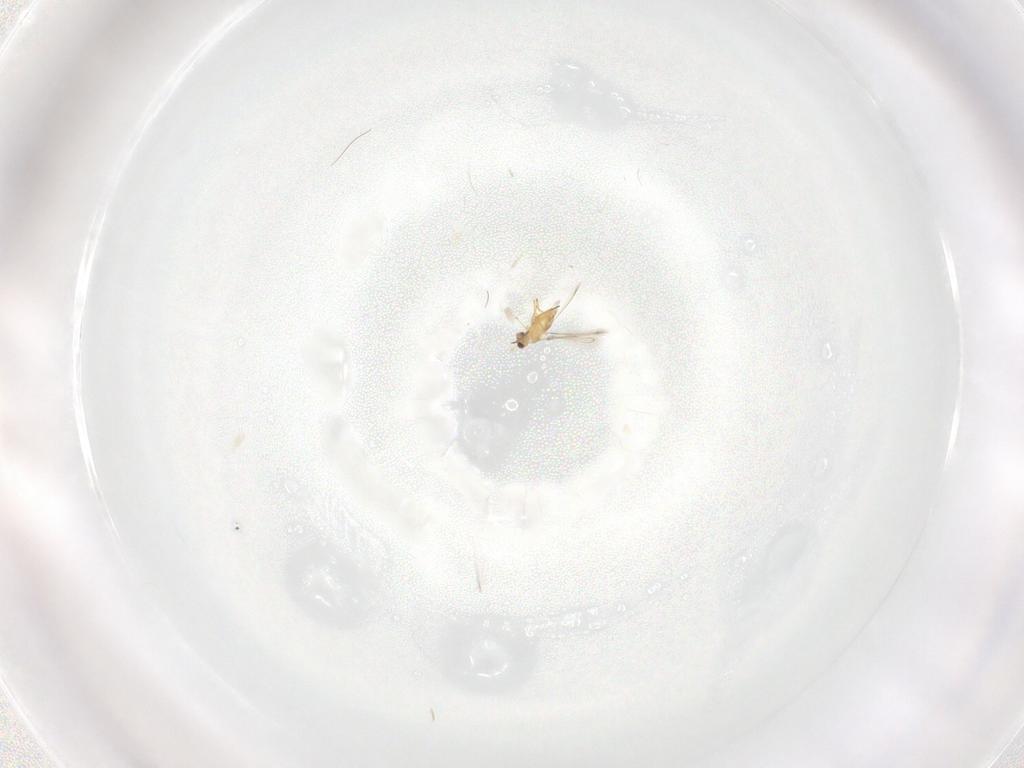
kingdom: Animalia
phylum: Arthropoda
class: Insecta
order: Hymenoptera
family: Mymaridae
